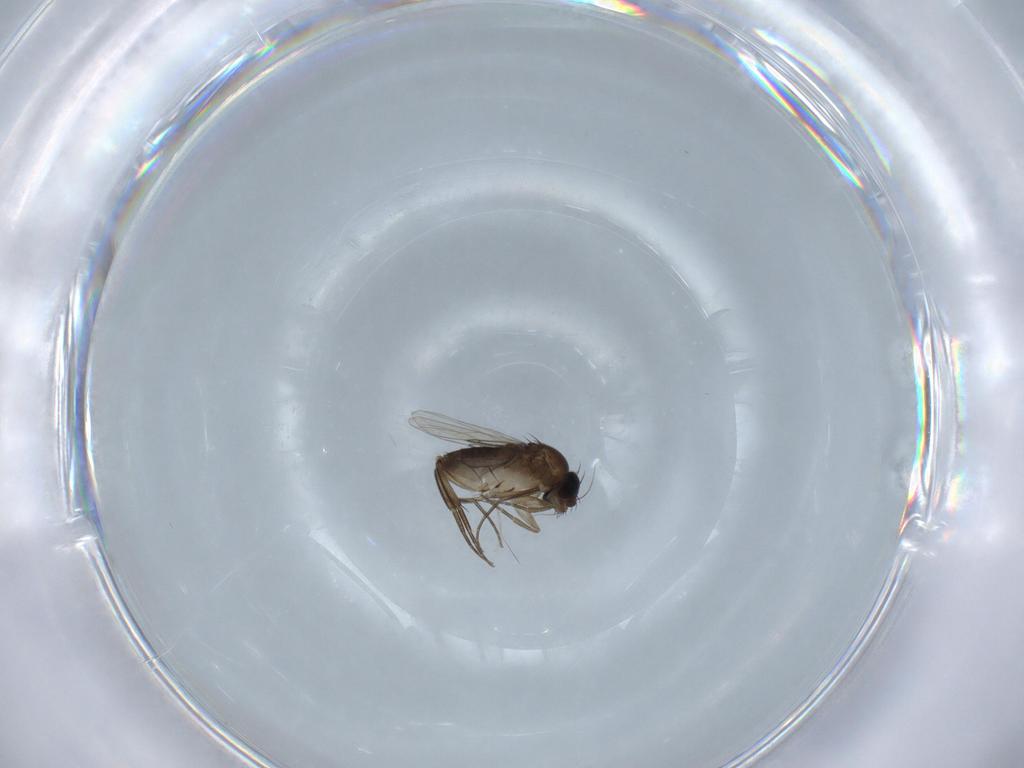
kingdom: Animalia
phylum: Arthropoda
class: Insecta
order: Diptera
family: Phoridae
